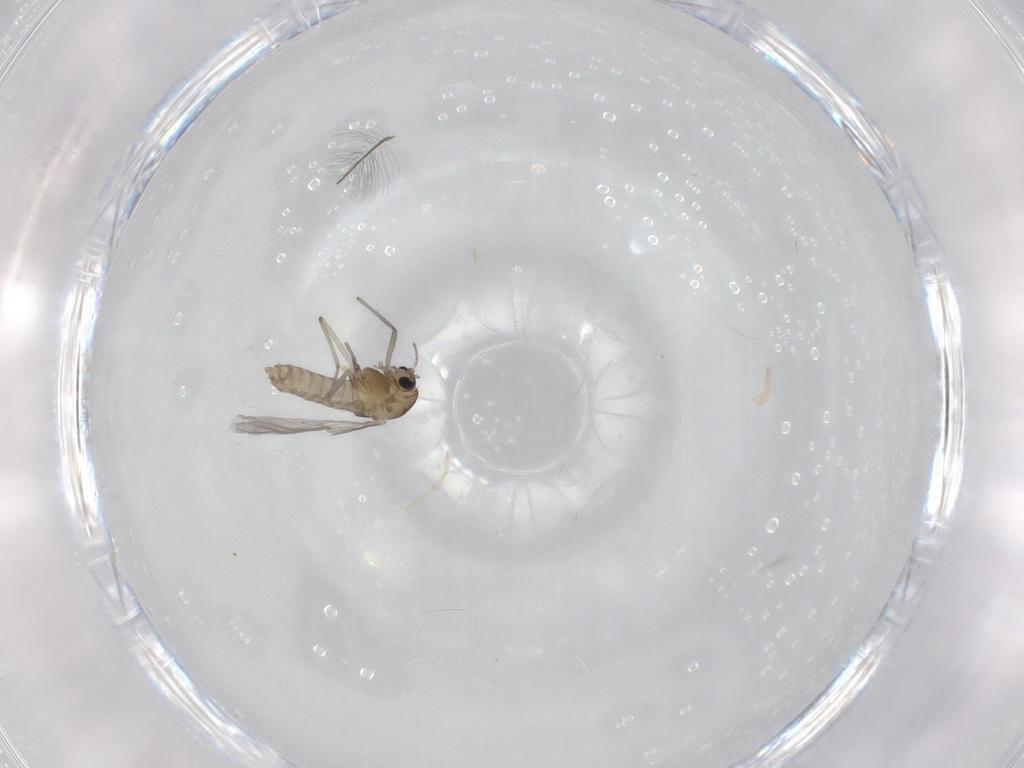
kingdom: Animalia
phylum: Arthropoda
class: Insecta
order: Diptera
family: Chironomidae
